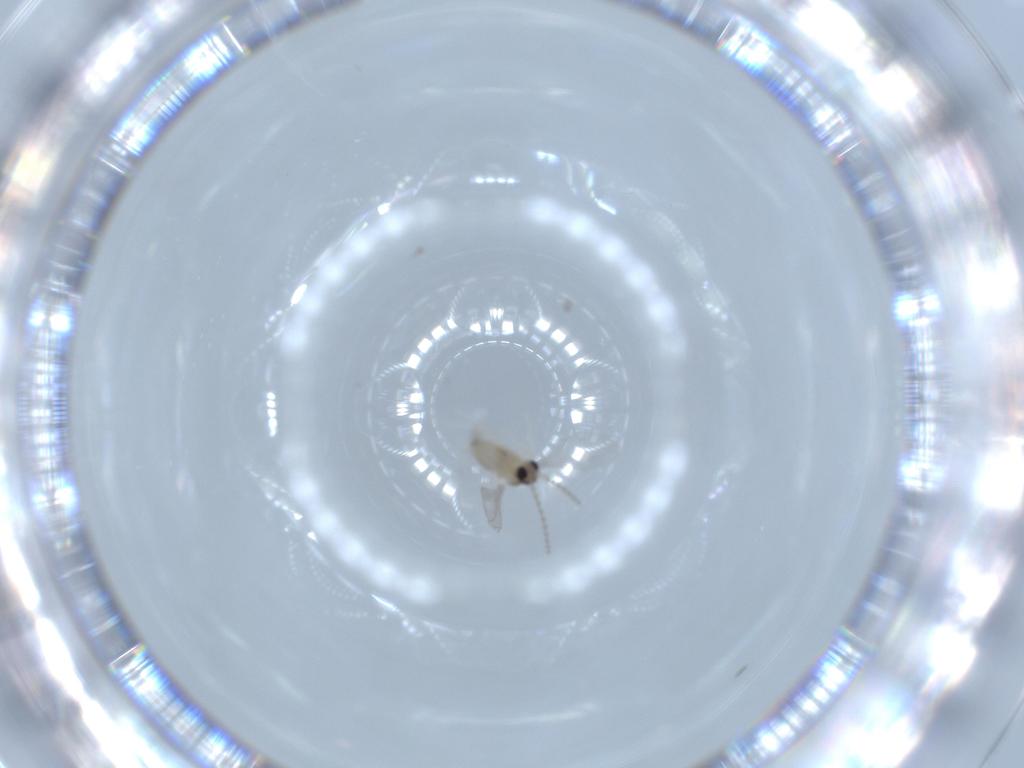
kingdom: Animalia
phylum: Arthropoda
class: Insecta
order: Diptera
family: Cecidomyiidae
